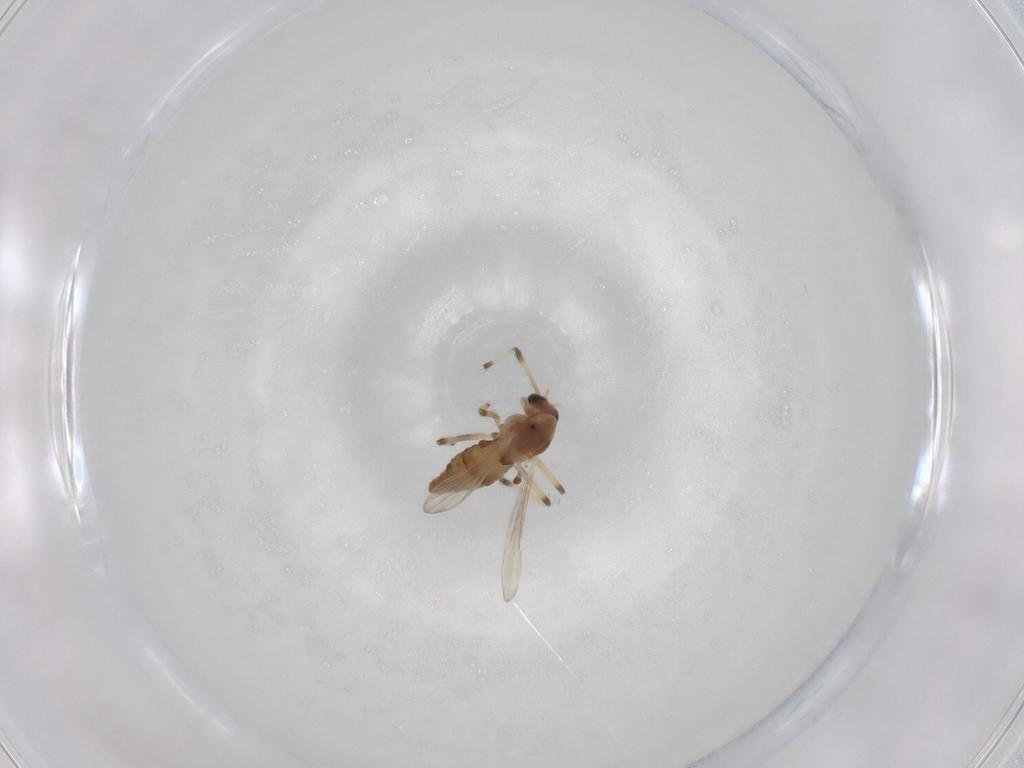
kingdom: Animalia
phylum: Arthropoda
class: Insecta
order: Diptera
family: Chironomidae
